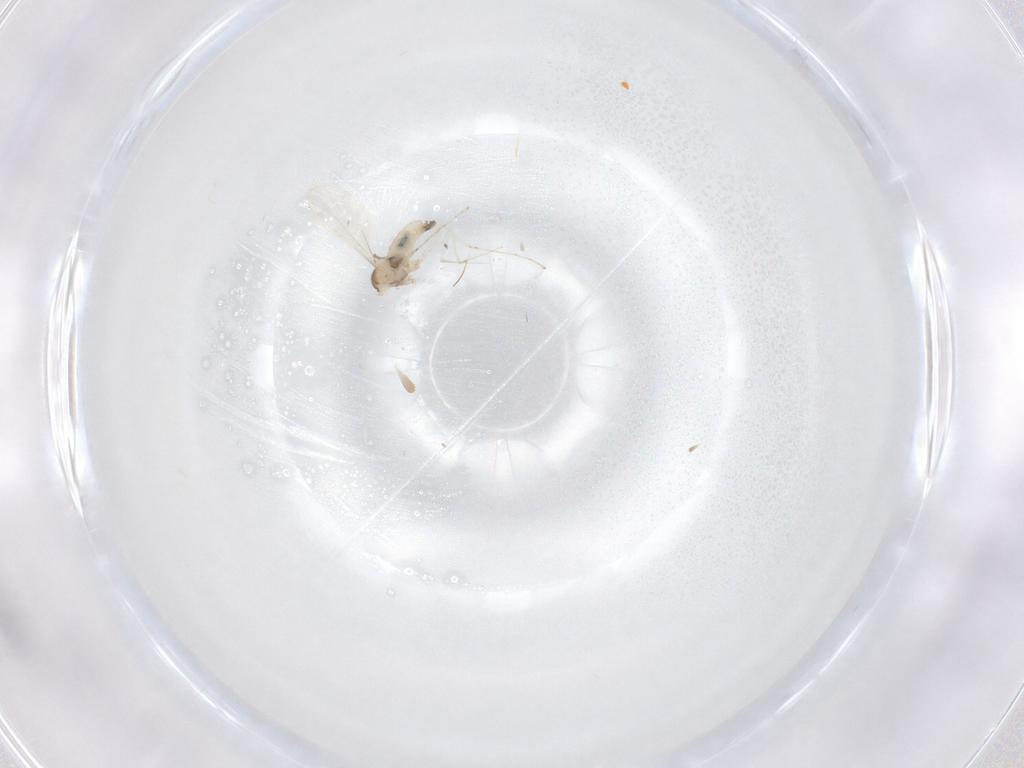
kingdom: Animalia
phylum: Arthropoda
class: Insecta
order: Diptera
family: Cecidomyiidae
